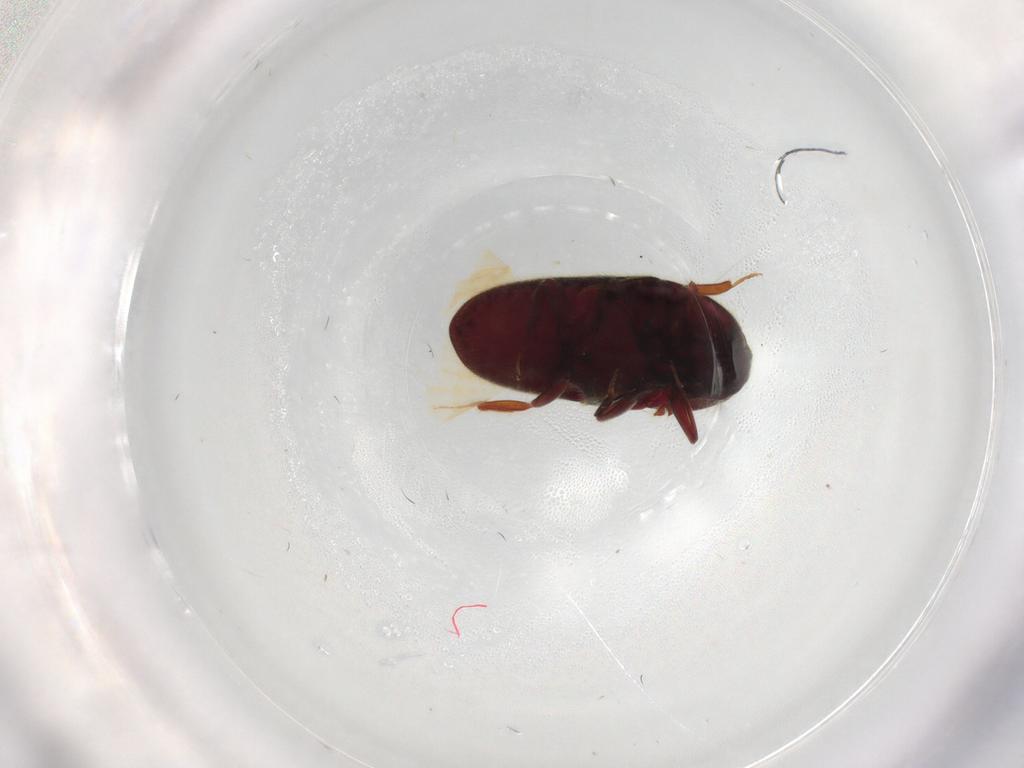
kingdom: Animalia
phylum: Arthropoda
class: Insecta
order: Coleoptera
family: Throscidae
